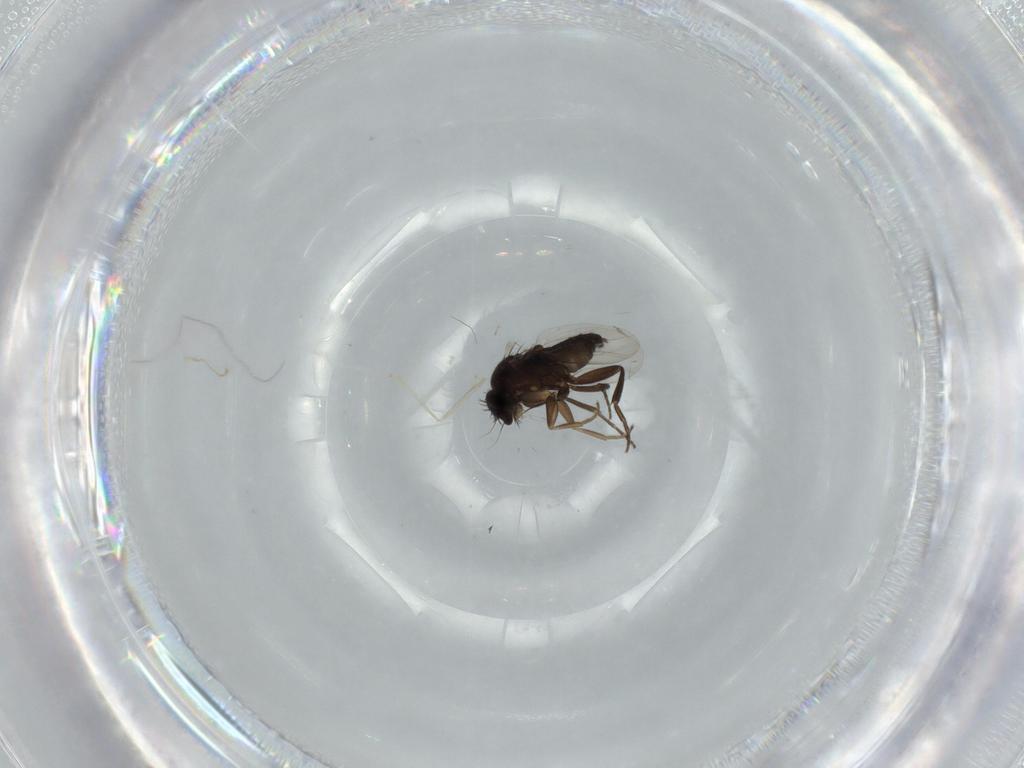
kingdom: Animalia
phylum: Arthropoda
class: Insecta
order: Diptera
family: Cecidomyiidae
